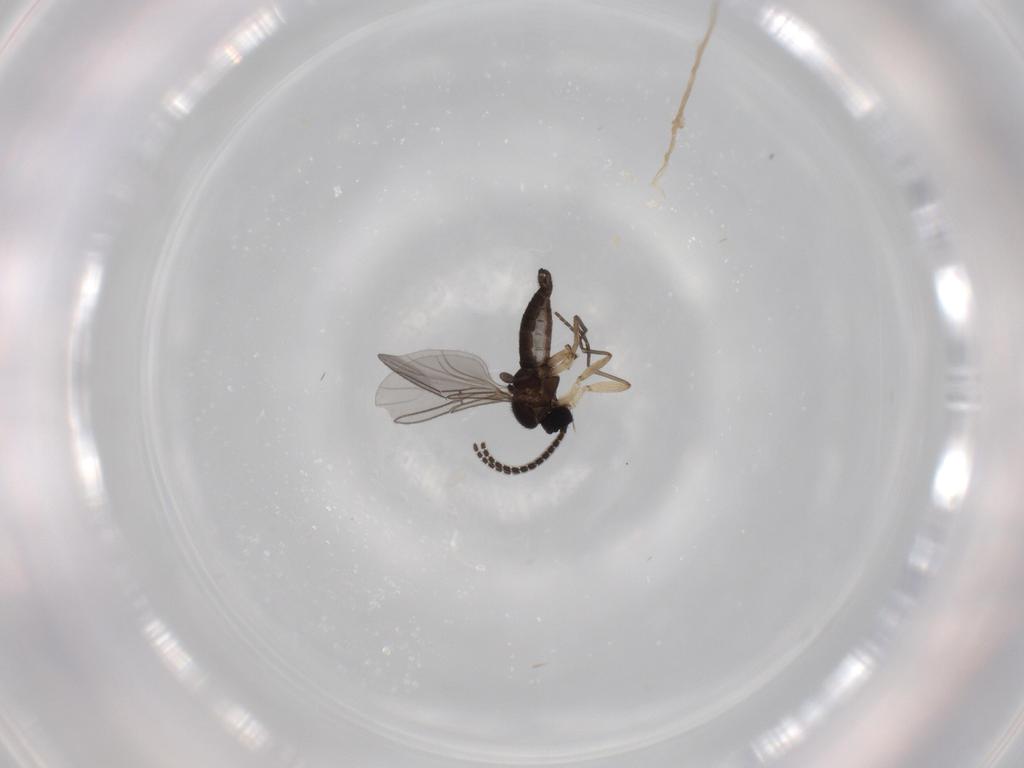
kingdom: Animalia
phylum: Arthropoda
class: Insecta
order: Diptera
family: Sciaridae
